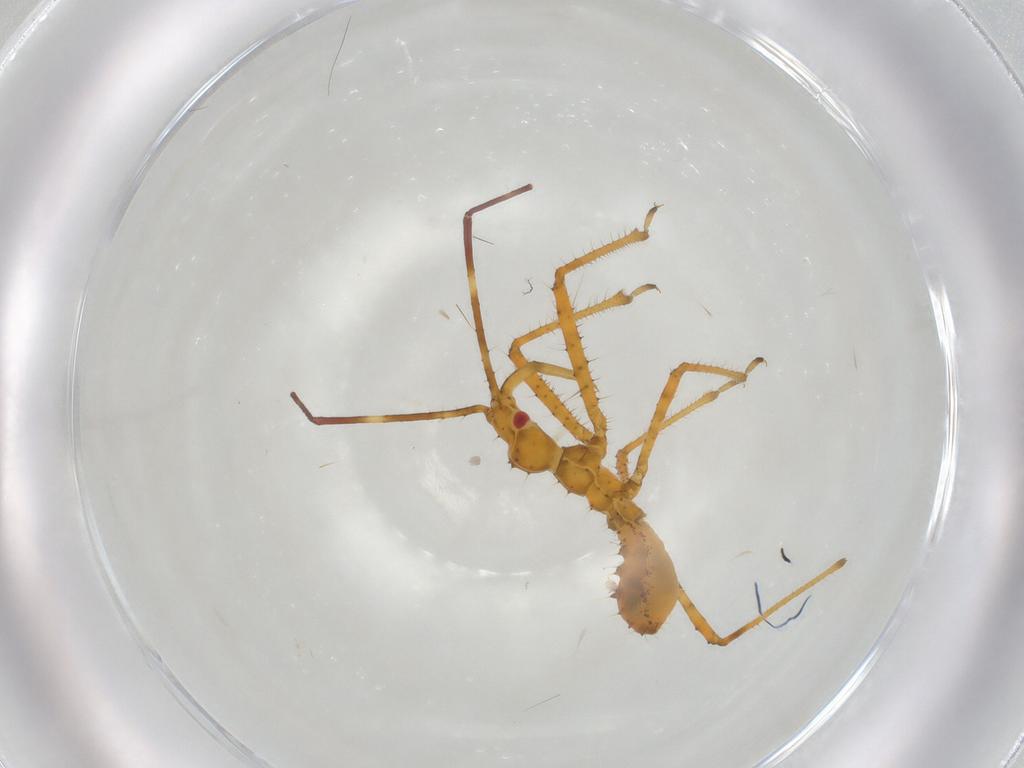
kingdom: Animalia
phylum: Arthropoda
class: Insecta
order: Hemiptera
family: Reduviidae
